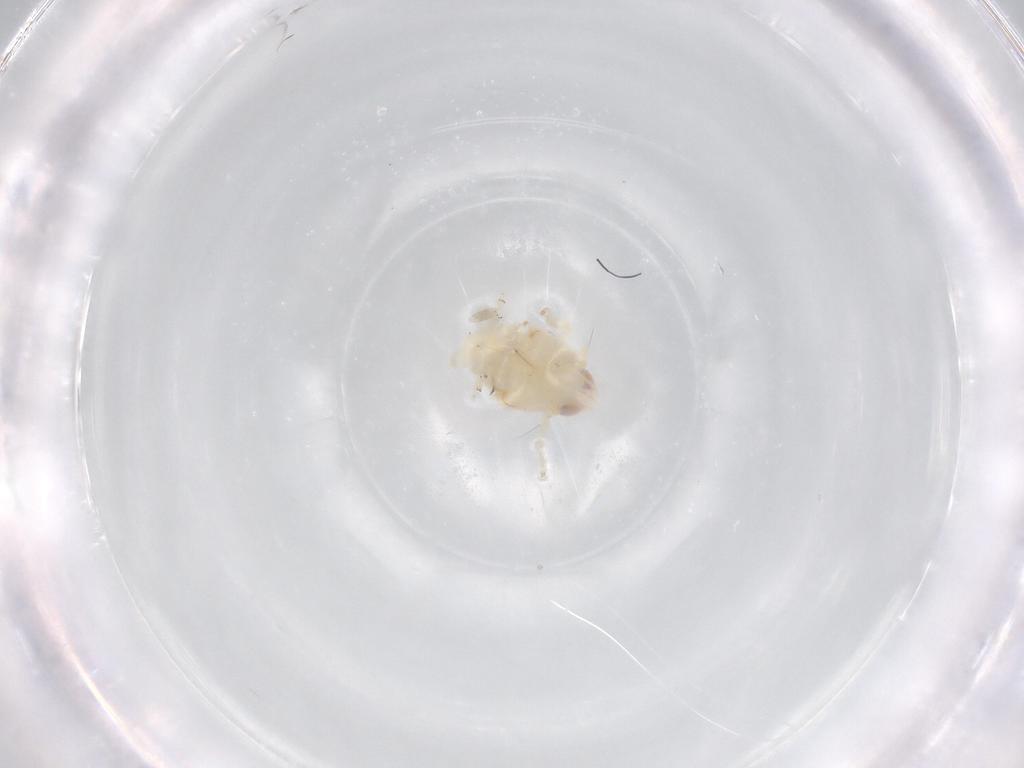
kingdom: Animalia
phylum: Arthropoda
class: Insecta
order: Hemiptera
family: Nogodinidae
